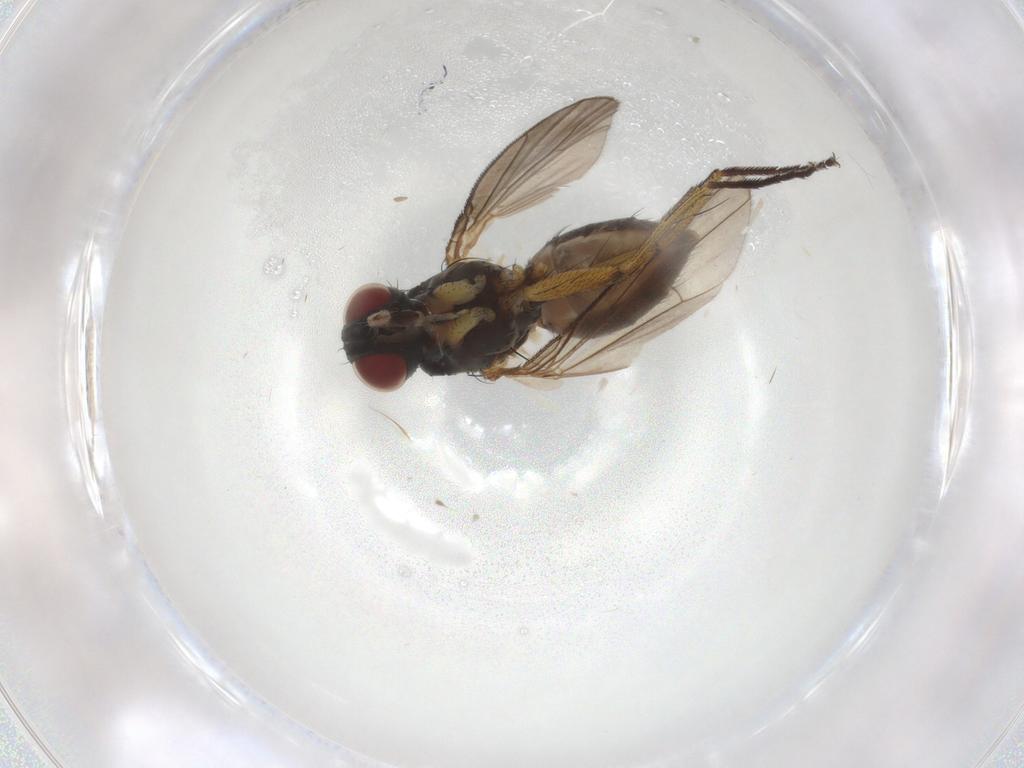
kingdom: Animalia
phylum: Arthropoda
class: Insecta
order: Diptera
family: Muscidae
